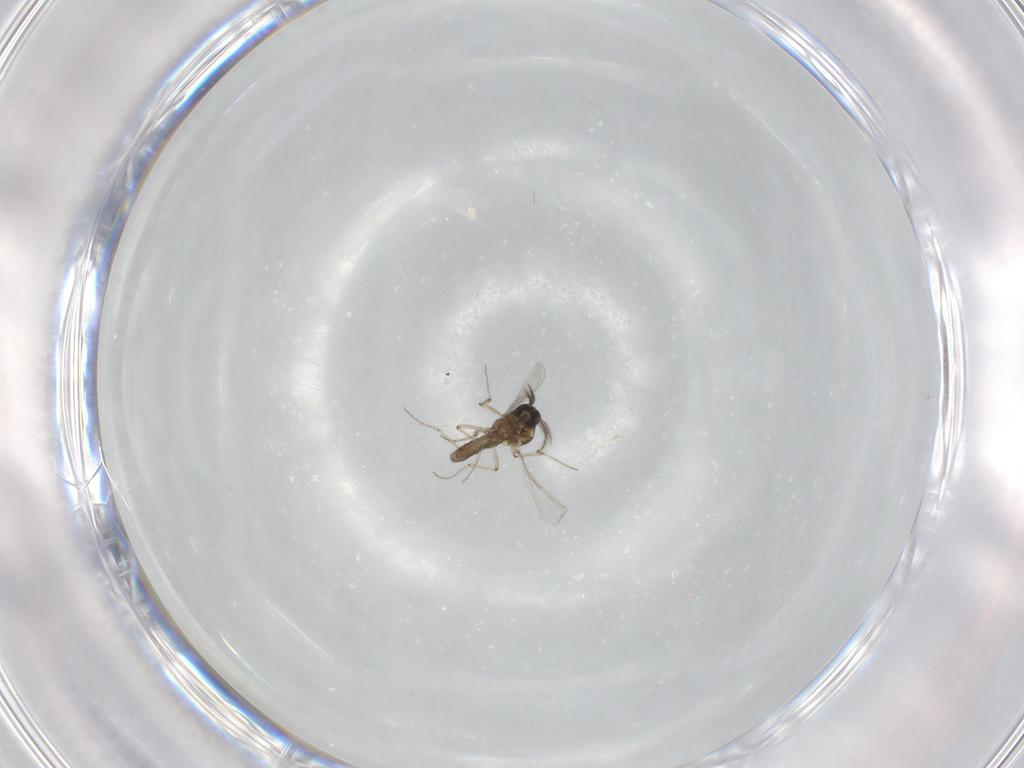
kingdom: Animalia
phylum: Arthropoda
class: Insecta
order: Diptera
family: Ceratopogonidae
